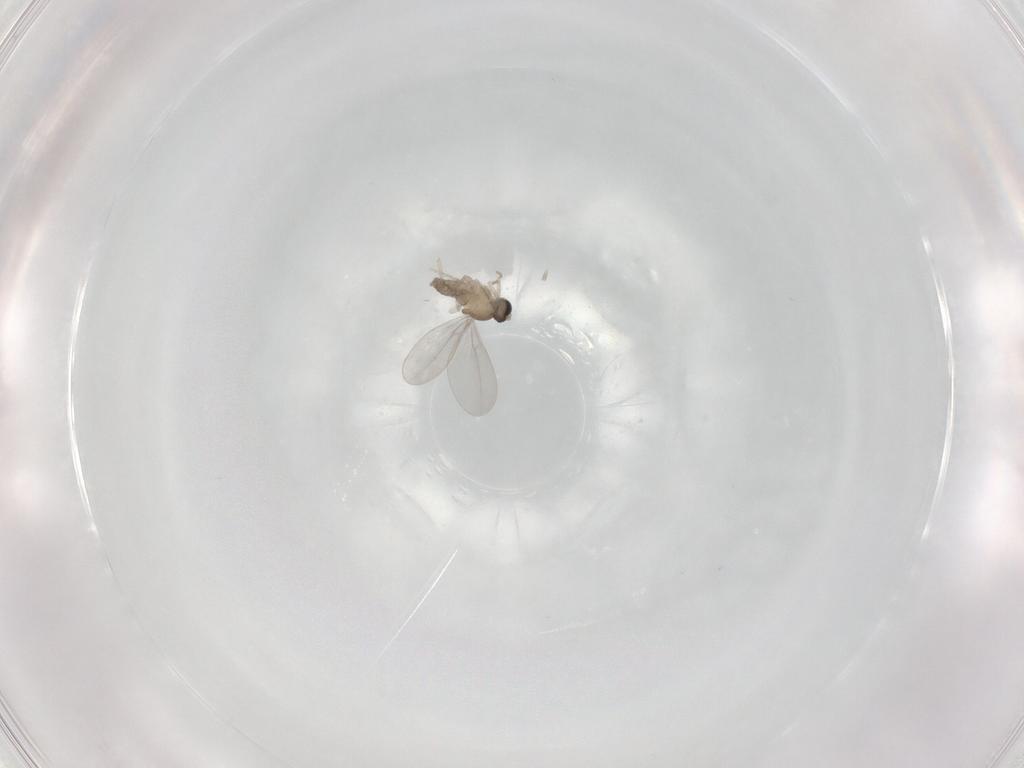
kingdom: Animalia
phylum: Arthropoda
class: Insecta
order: Diptera
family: Cecidomyiidae
